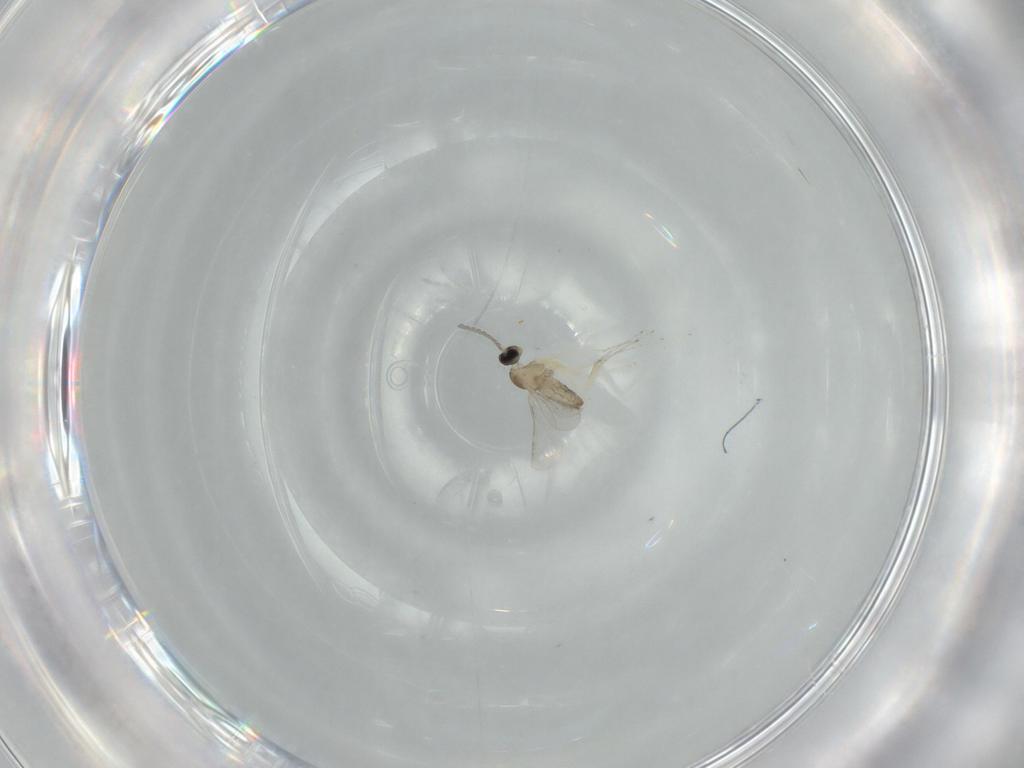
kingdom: Animalia
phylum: Arthropoda
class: Insecta
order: Diptera
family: Cecidomyiidae
